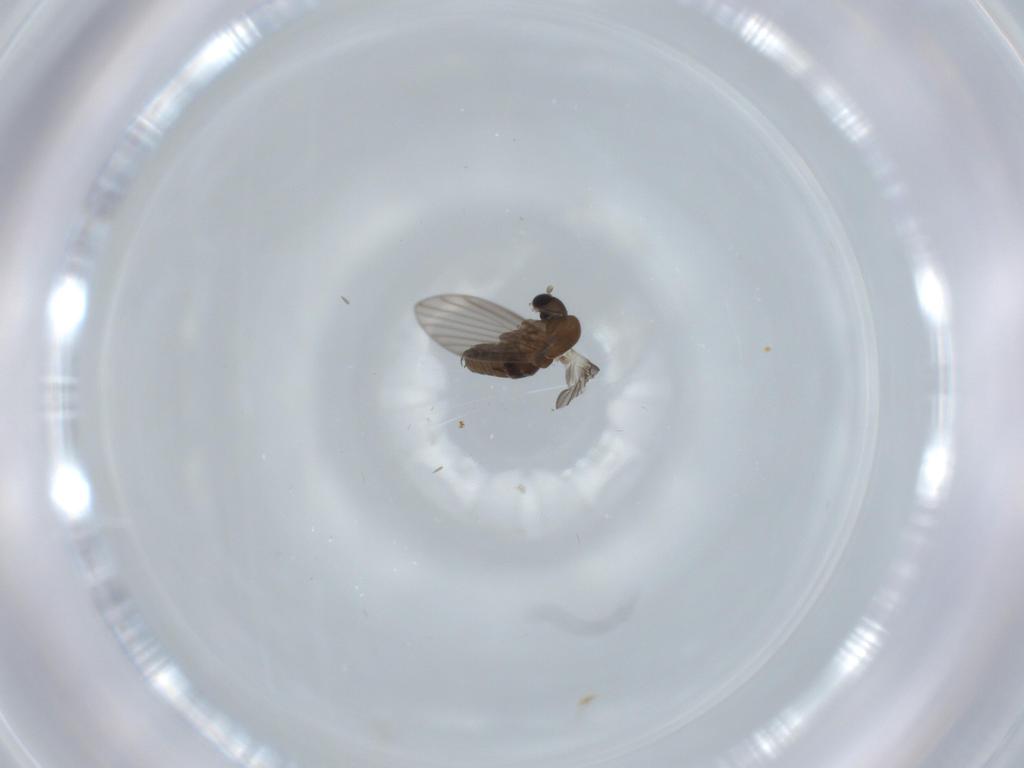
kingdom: Animalia
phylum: Arthropoda
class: Insecta
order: Diptera
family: Psychodidae
